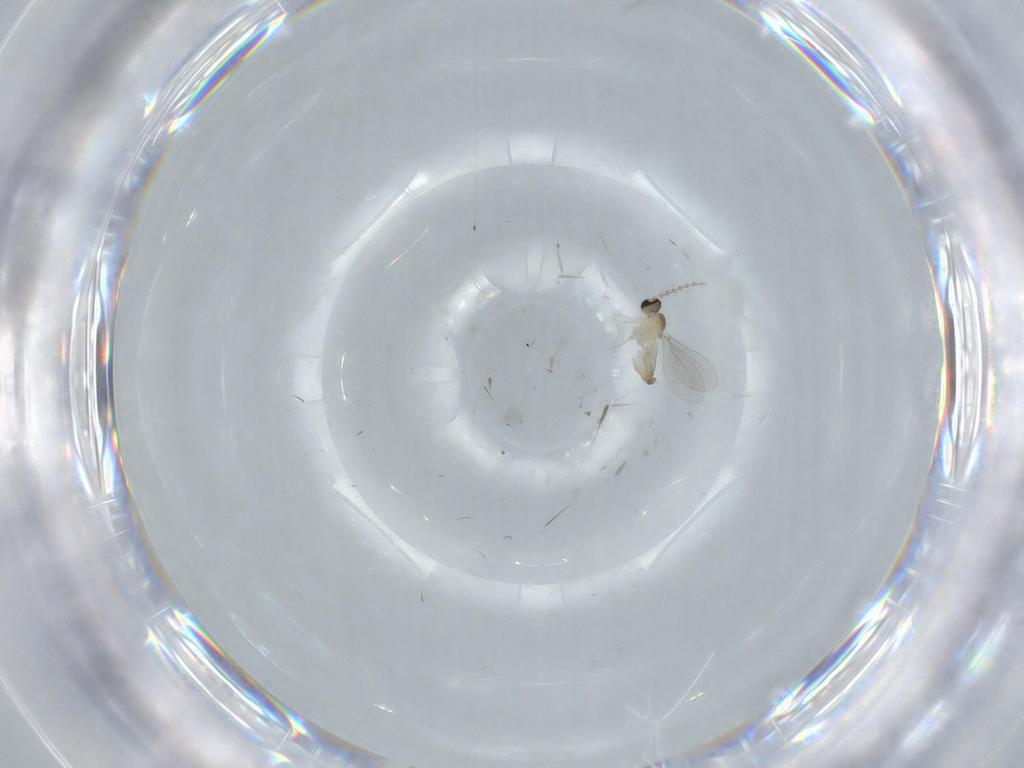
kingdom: Animalia
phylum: Arthropoda
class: Insecta
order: Diptera
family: Cecidomyiidae
